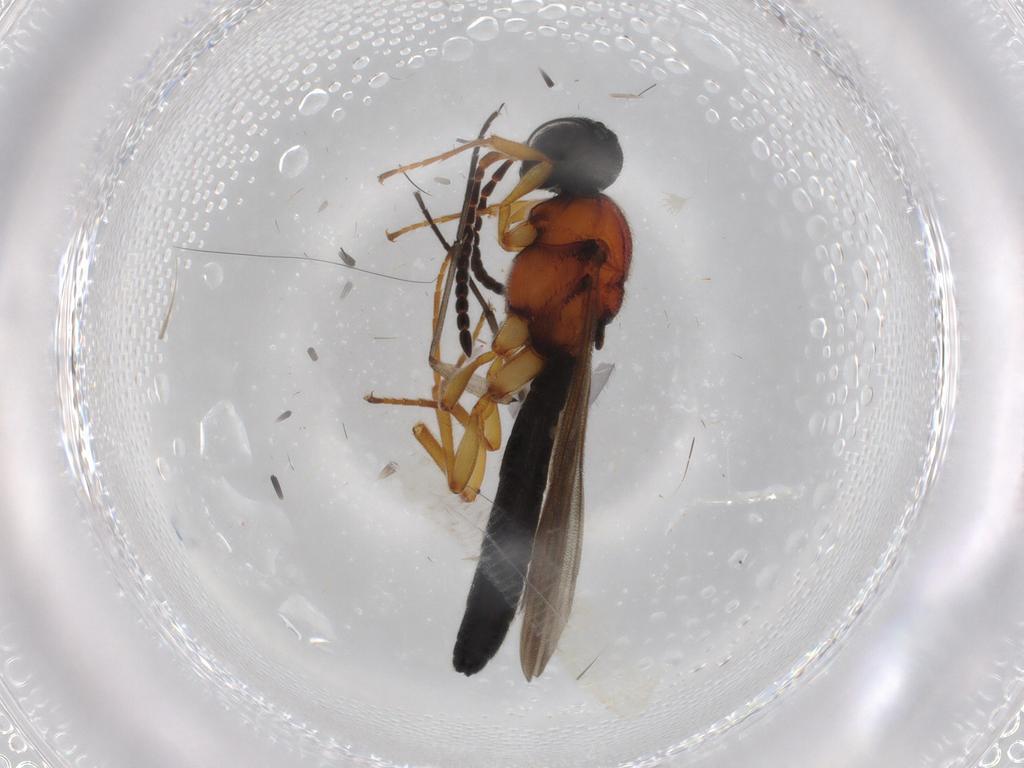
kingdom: Animalia
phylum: Arthropoda
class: Insecta
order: Hymenoptera
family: Scelionidae
